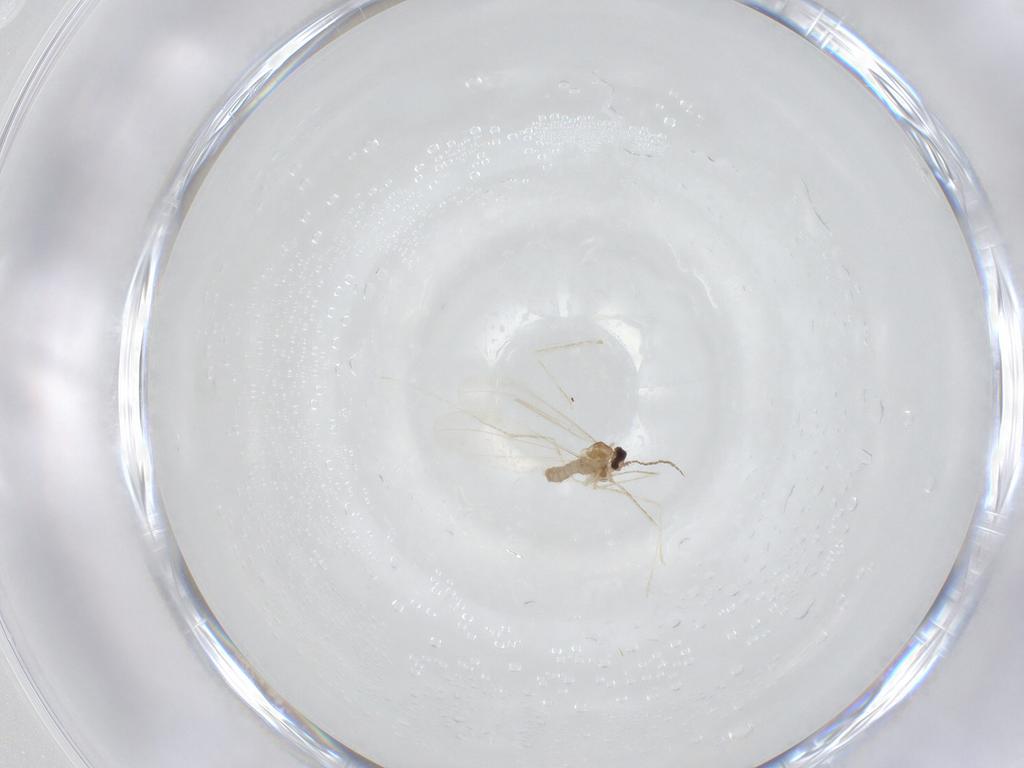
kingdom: Animalia
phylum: Arthropoda
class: Insecta
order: Diptera
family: Cecidomyiidae
